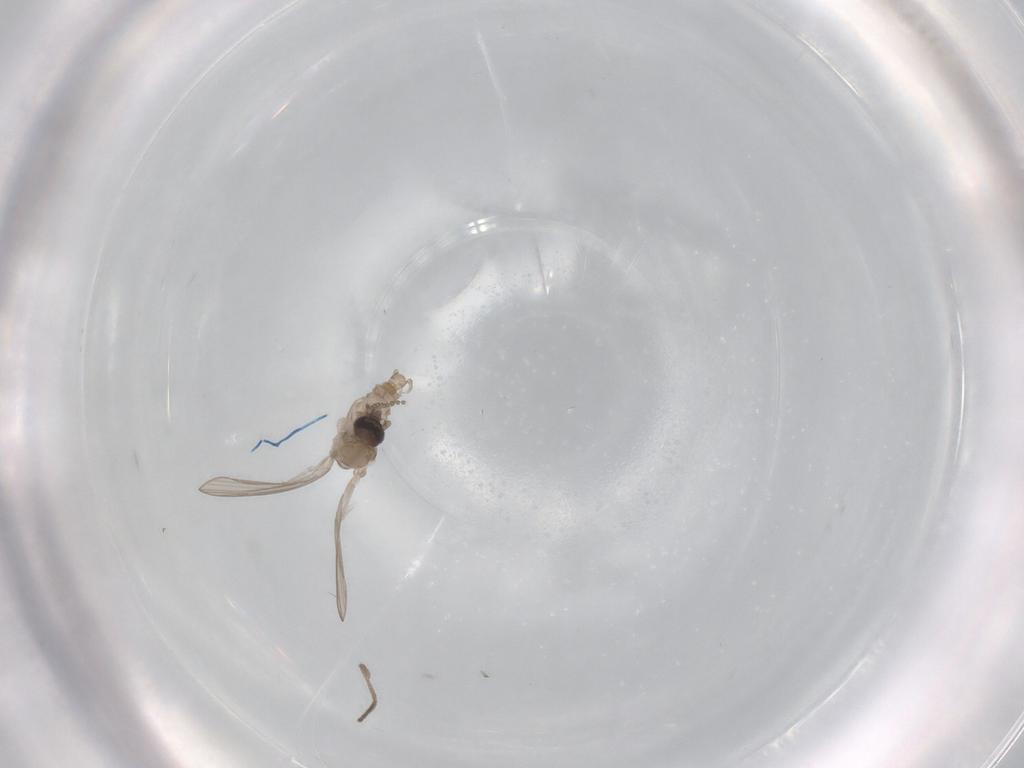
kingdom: Animalia
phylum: Arthropoda
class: Insecta
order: Diptera
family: Psychodidae
